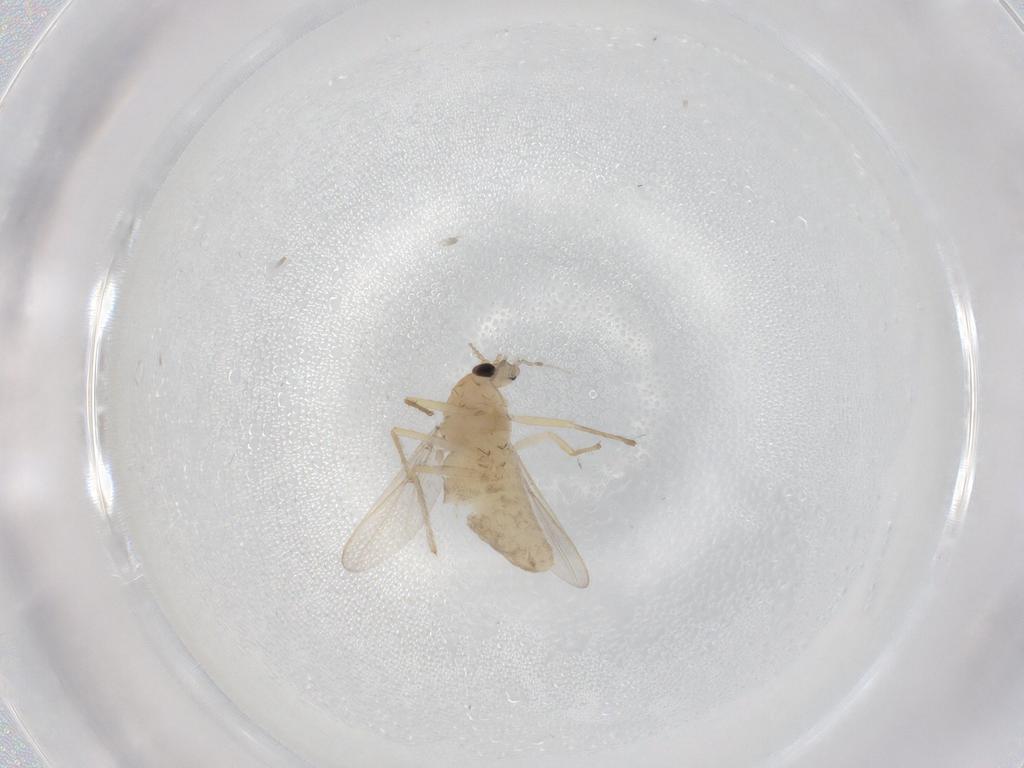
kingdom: Animalia
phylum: Arthropoda
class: Insecta
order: Diptera
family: Chironomidae
